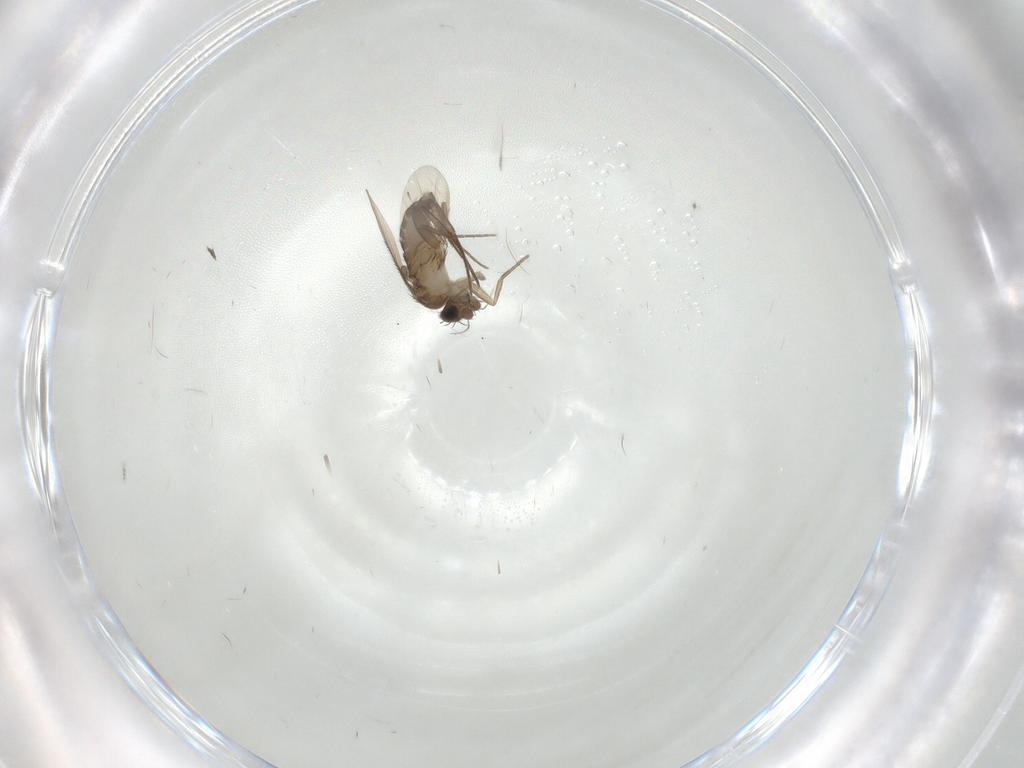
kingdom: Animalia
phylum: Arthropoda
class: Insecta
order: Diptera
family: Phoridae
